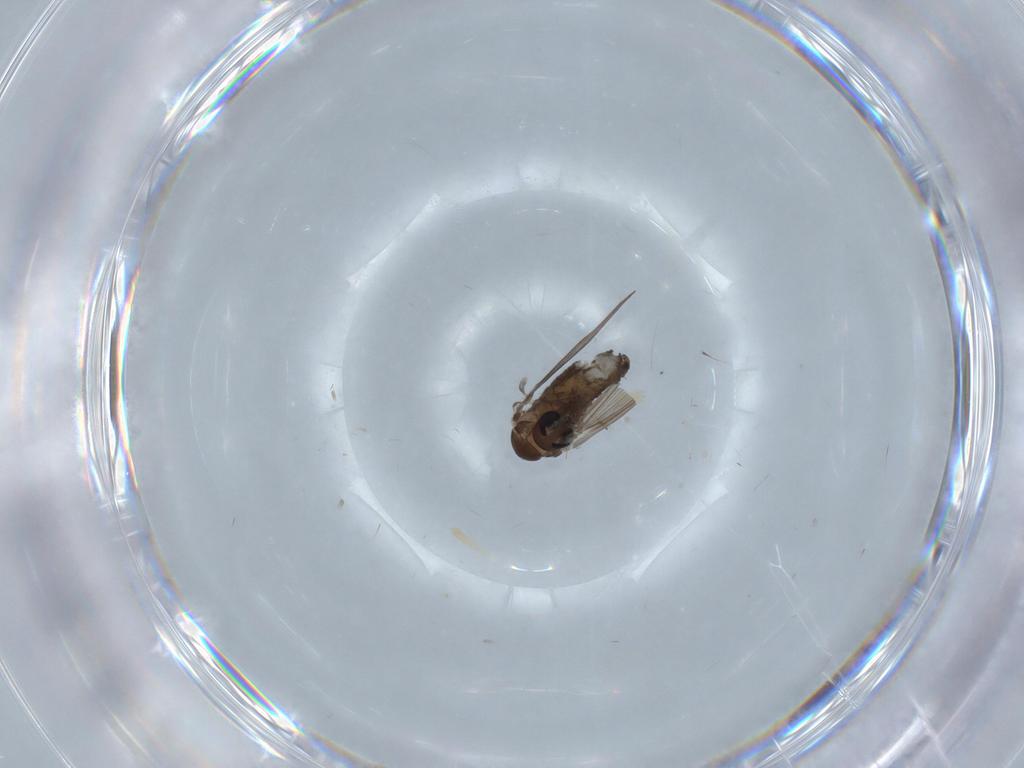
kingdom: Animalia
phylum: Arthropoda
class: Insecta
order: Diptera
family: Psychodidae
